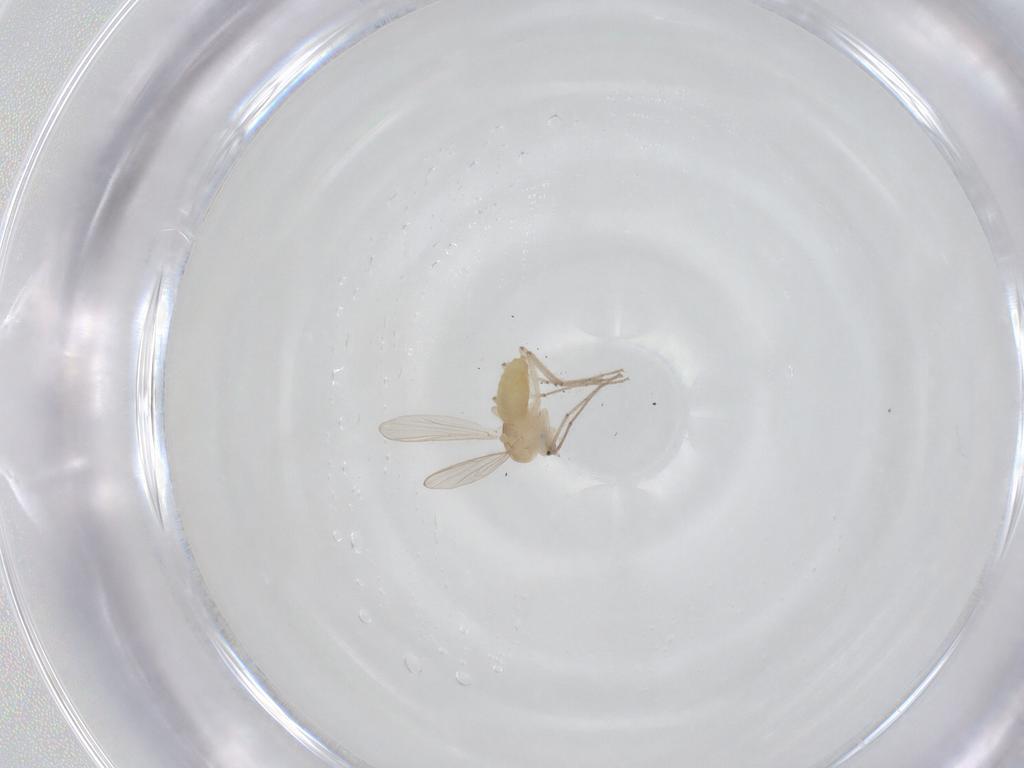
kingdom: Animalia
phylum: Arthropoda
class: Insecta
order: Diptera
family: Chironomidae
